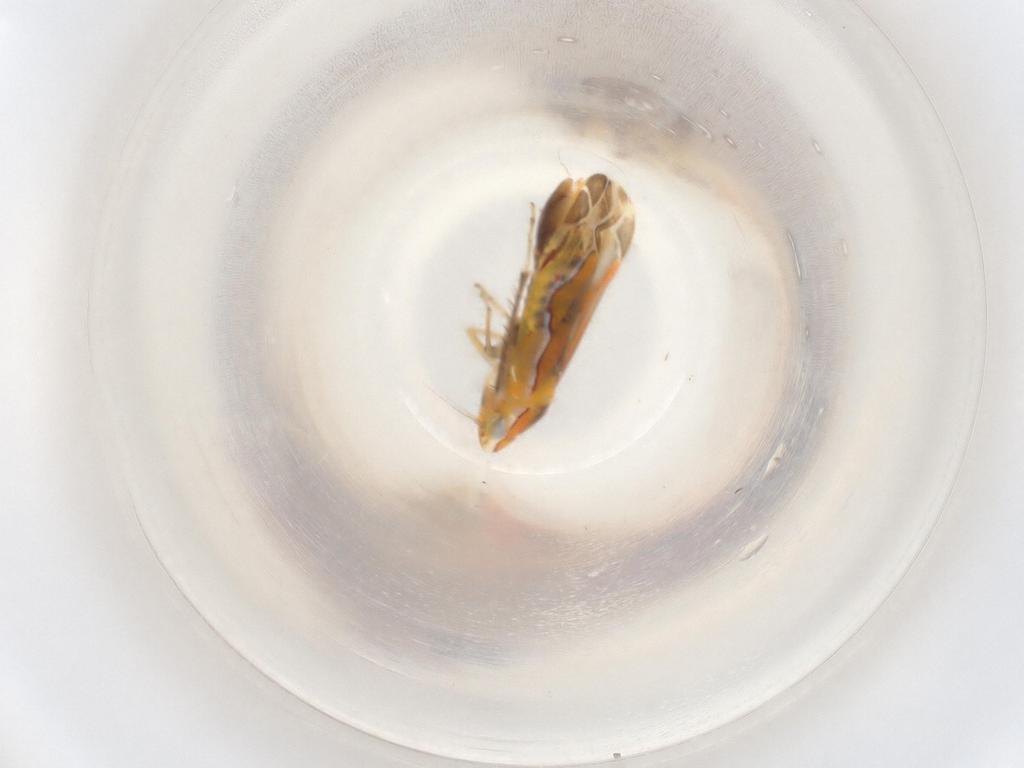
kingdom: Animalia
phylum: Arthropoda
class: Insecta
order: Hemiptera
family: Cicadellidae
